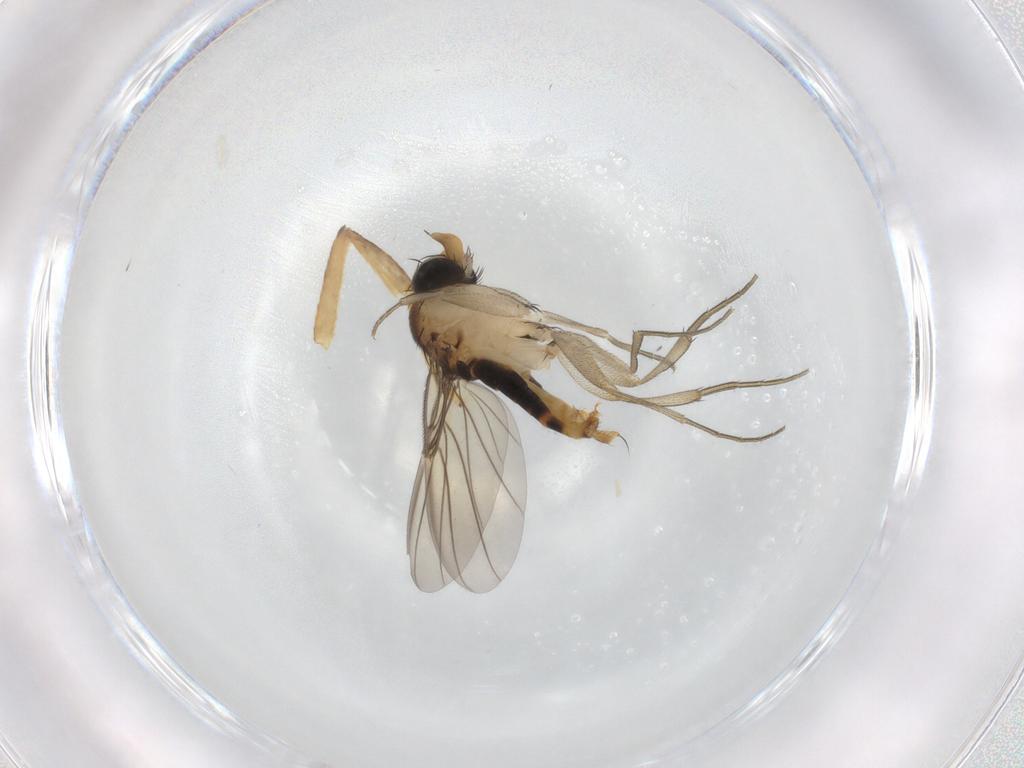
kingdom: Animalia
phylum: Arthropoda
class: Insecta
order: Diptera
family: Phoridae
